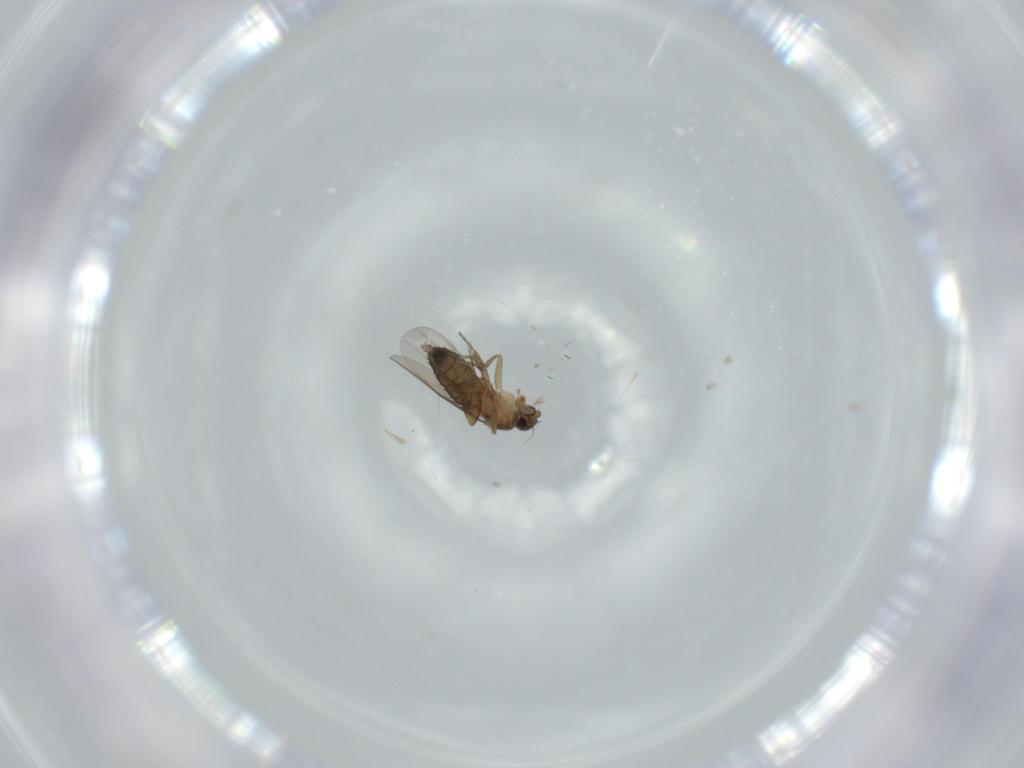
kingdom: Animalia
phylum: Arthropoda
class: Insecta
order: Diptera
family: Phoridae
